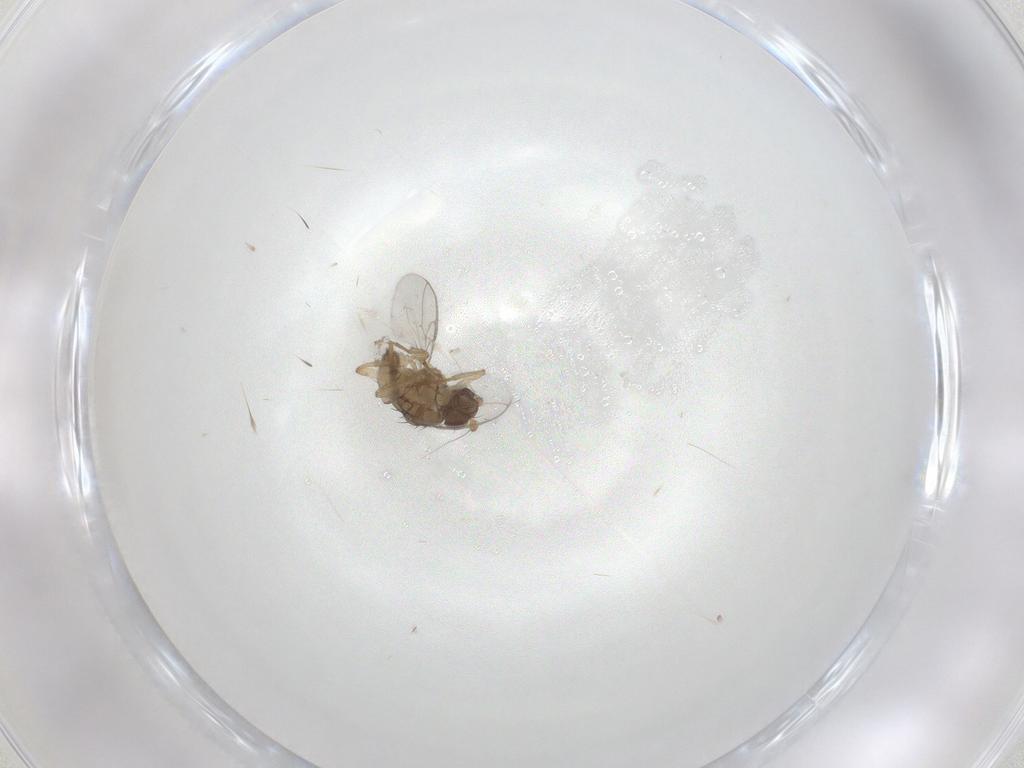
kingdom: Animalia
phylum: Arthropoda
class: Insecta
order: Diptera
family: Sphaeroceridae
